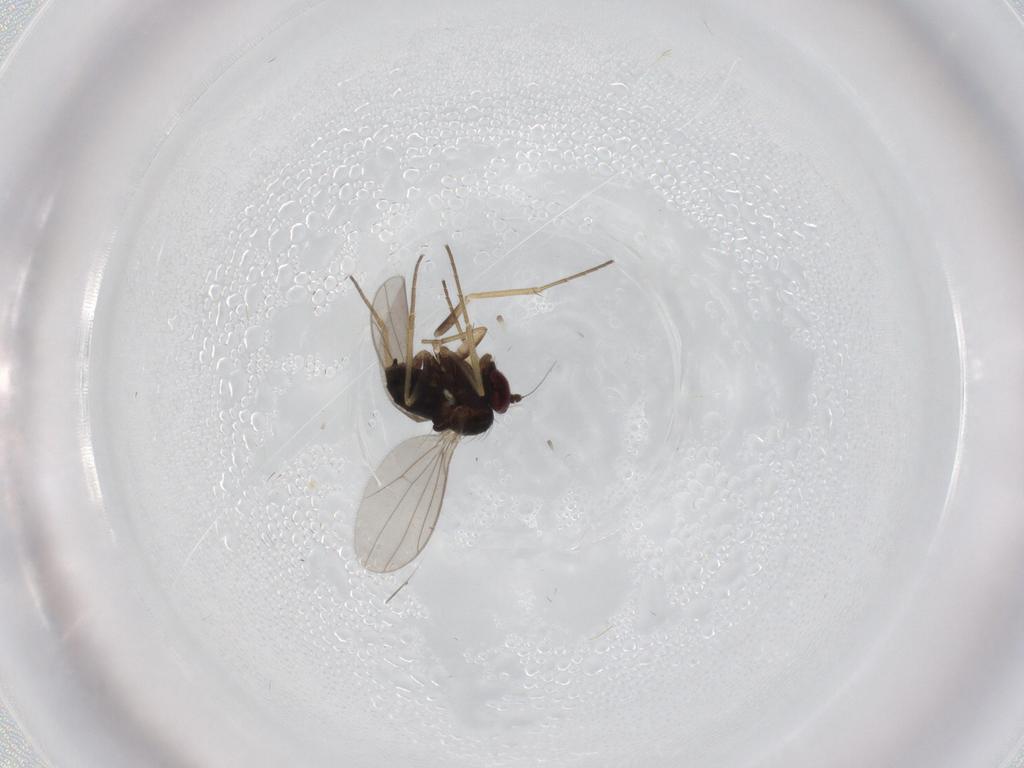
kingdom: Animalia
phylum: Arthropoda
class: Insecta
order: Diptera
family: Dolichopodidae
